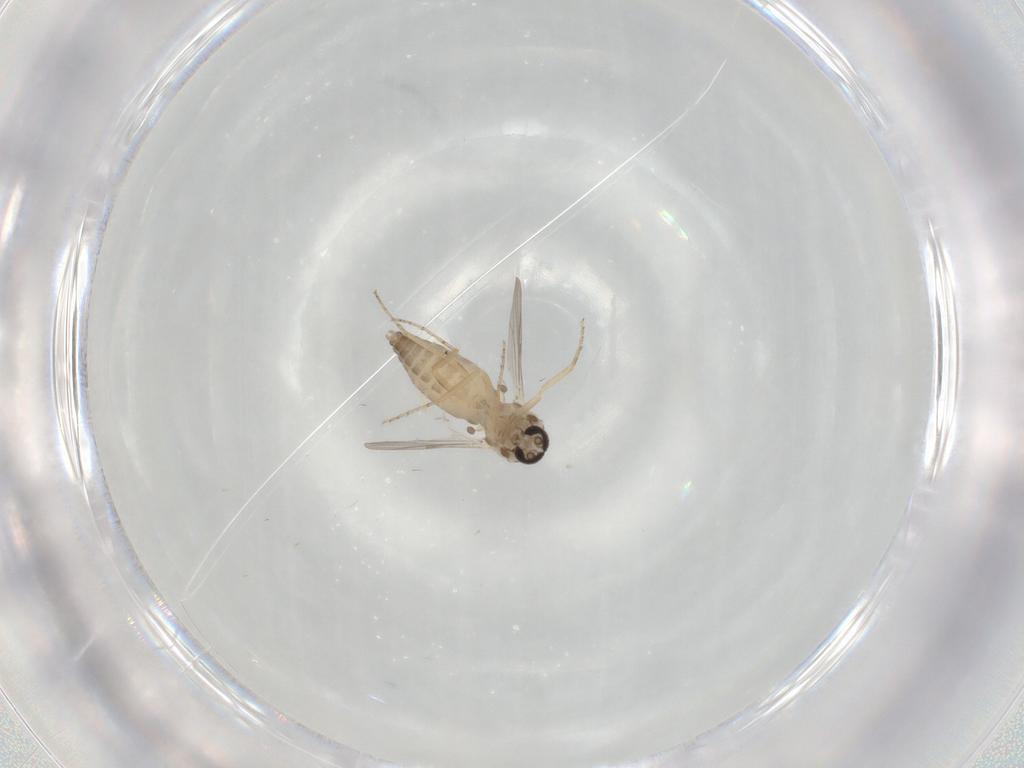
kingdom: Animalia
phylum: Arthropoda
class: Insecta
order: Diptera
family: Ceratopogonidae
